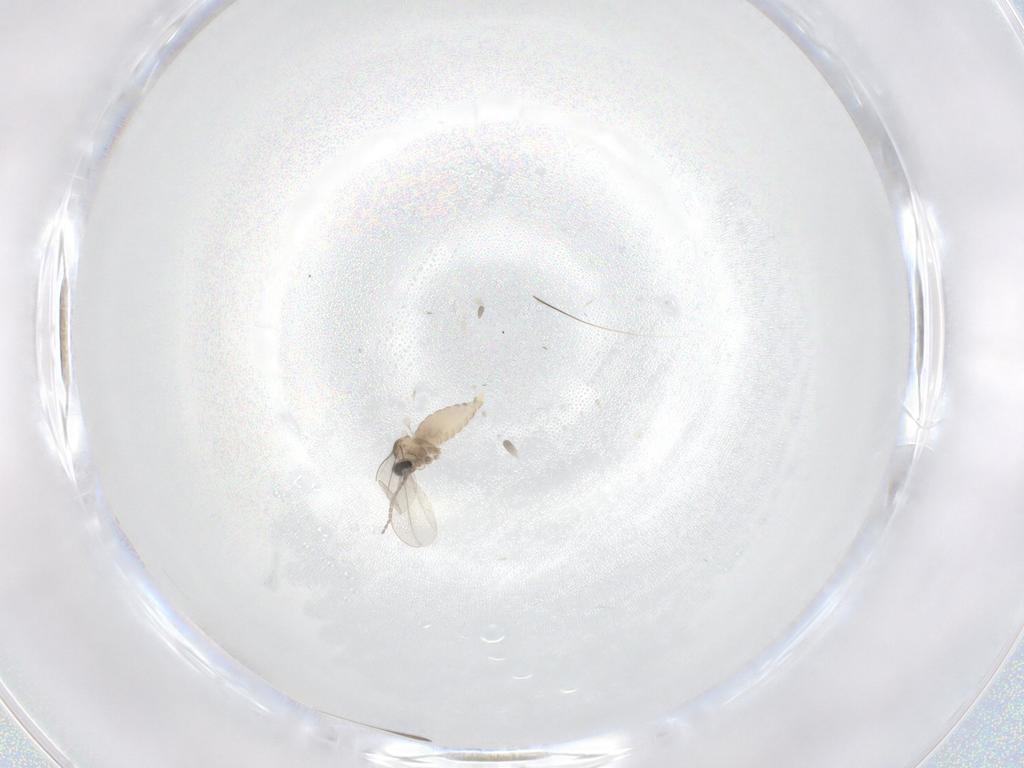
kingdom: Animalia
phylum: Arthropoda
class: Insecta
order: Diptera
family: Cecidomyiidae
